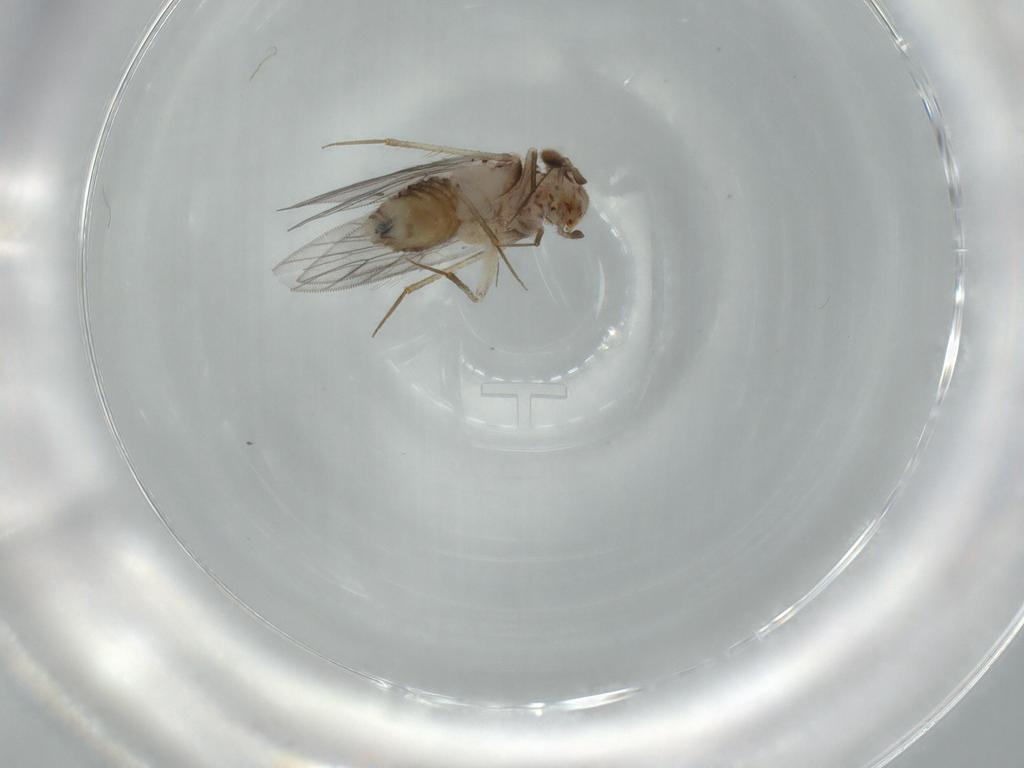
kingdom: Animalia
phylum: Arthropoda
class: Insecta
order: Psocodea
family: Lepidopsocidae
